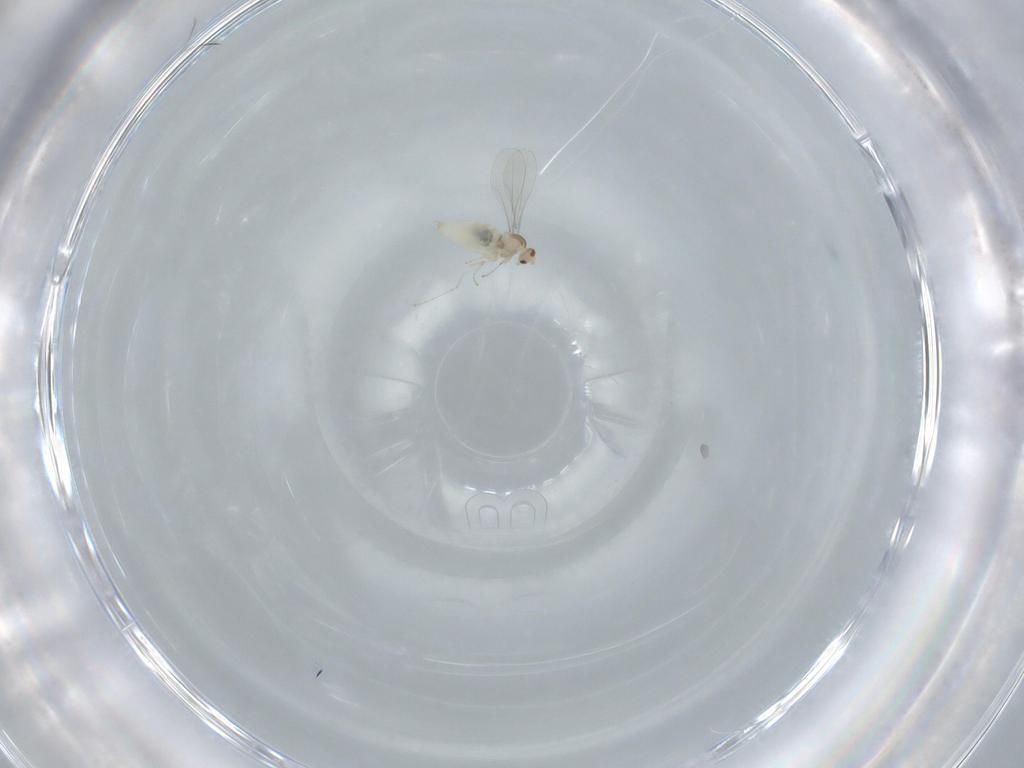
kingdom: Animalia
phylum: Arthropoda
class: Insecta
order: Diptera
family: Cecidomyiidae
